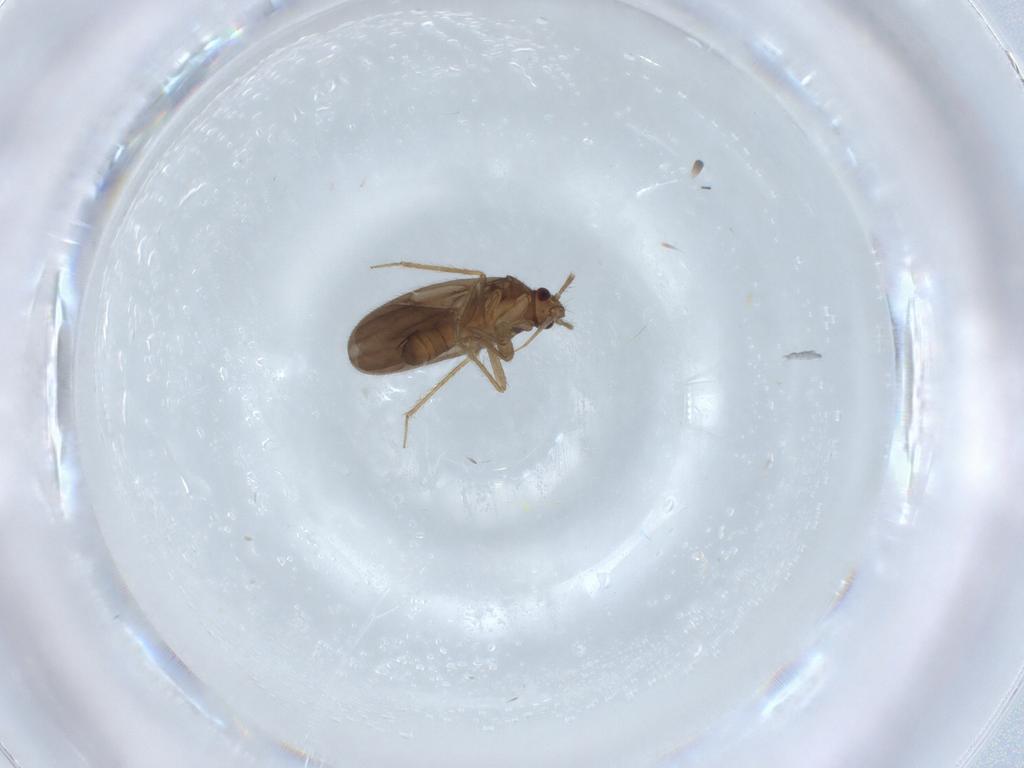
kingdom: Animalia
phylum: Arthropoda
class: Insecta
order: Hemiptera
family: Ceratocombidae
